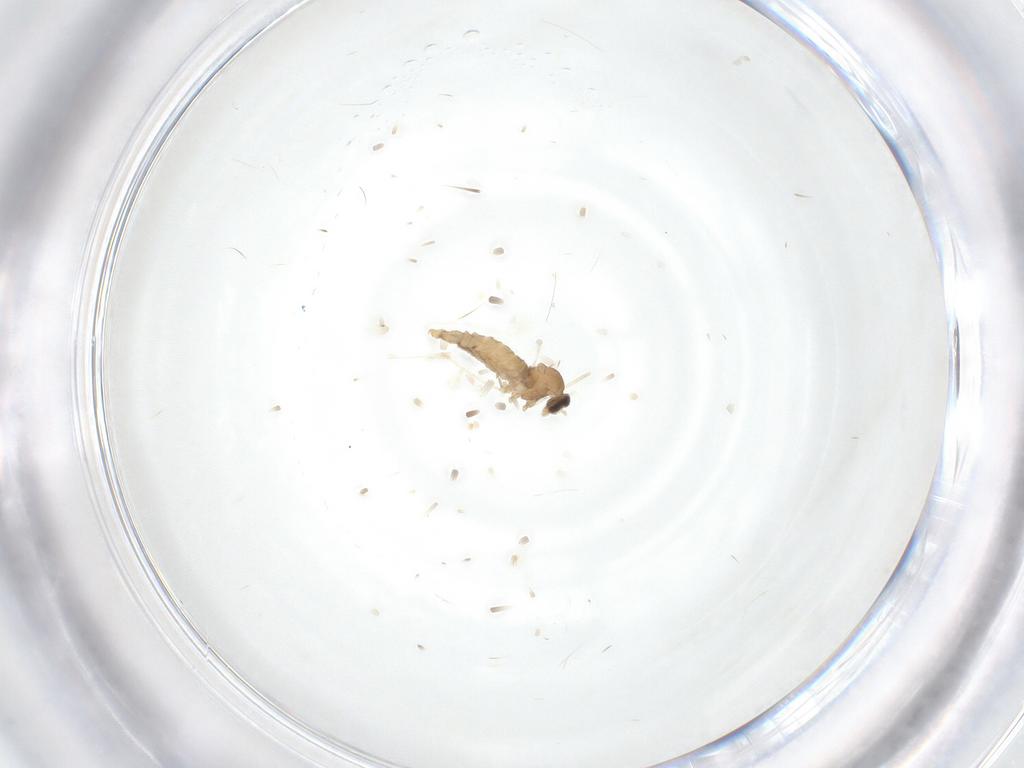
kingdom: Animalia
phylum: Arthropoda
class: Insecta
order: Diptera
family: Cecidomyiidae
